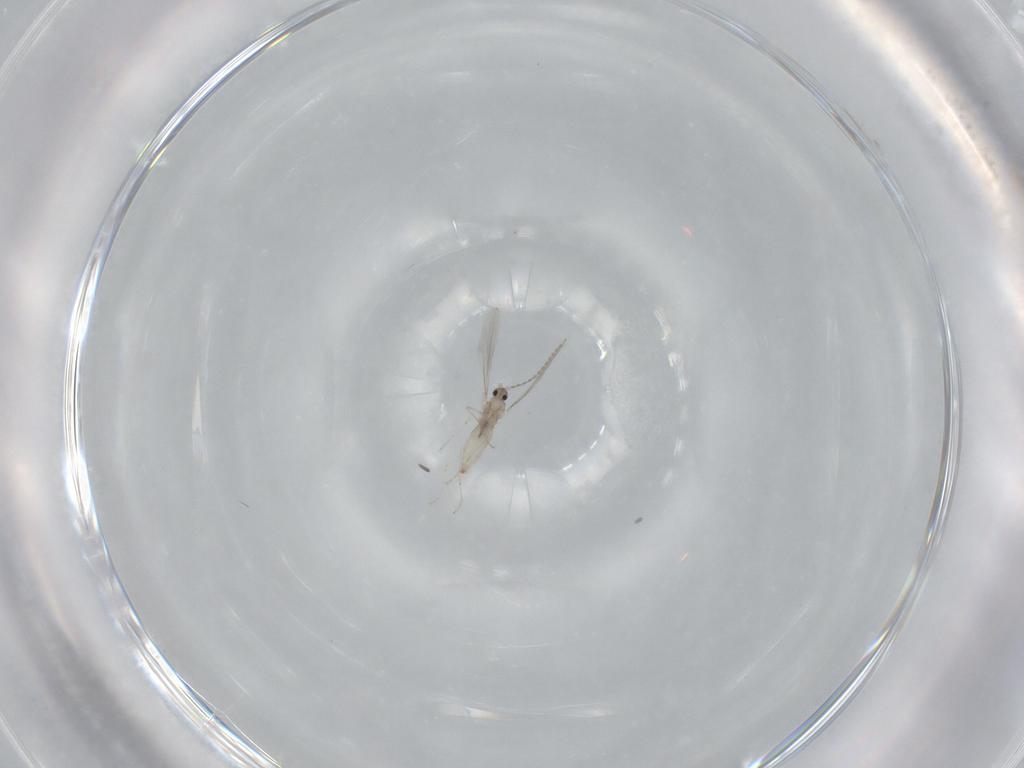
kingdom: Animalia
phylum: Arthropoda
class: Insecta
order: Diptera
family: Cecidomyiidae
